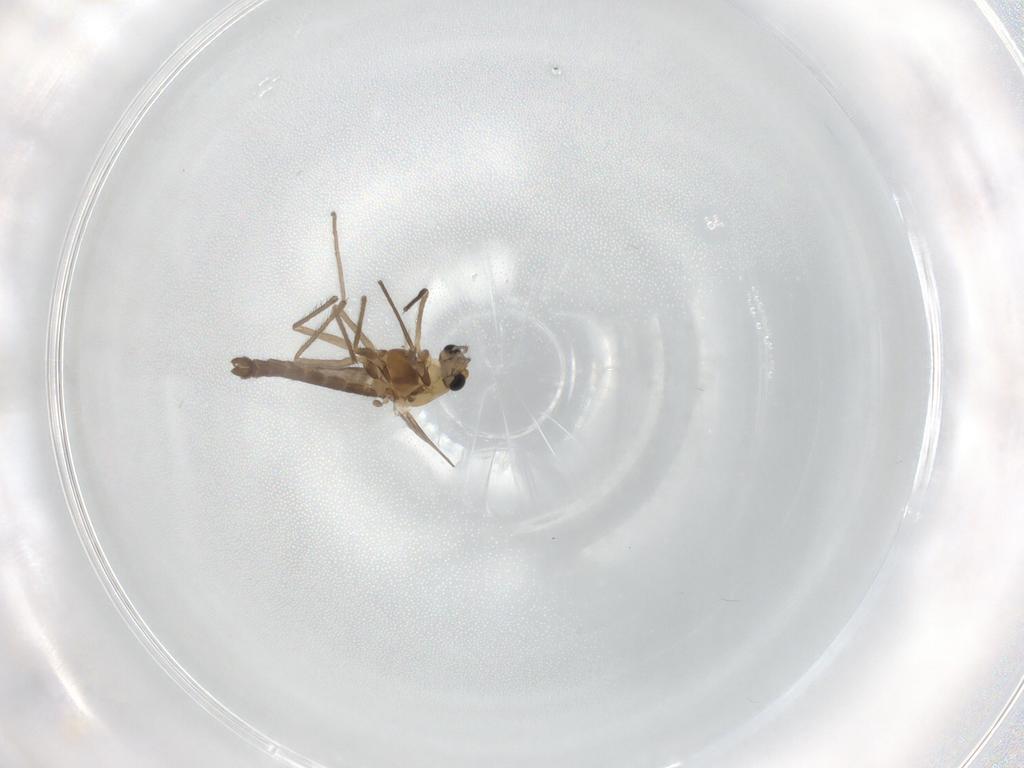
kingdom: Animalia
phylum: Arthropoda
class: Insecta
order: Diptera
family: Chironomidae
